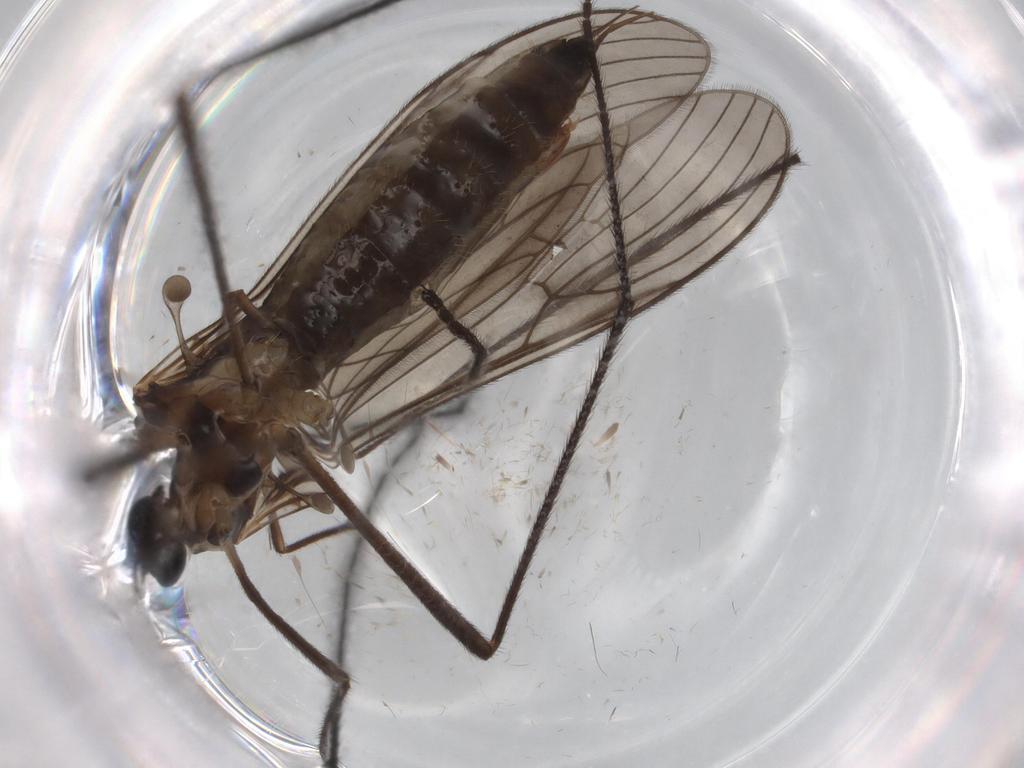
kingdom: Animalia
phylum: Arthropoda
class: Insecta
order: Diptera
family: Limoniidae
